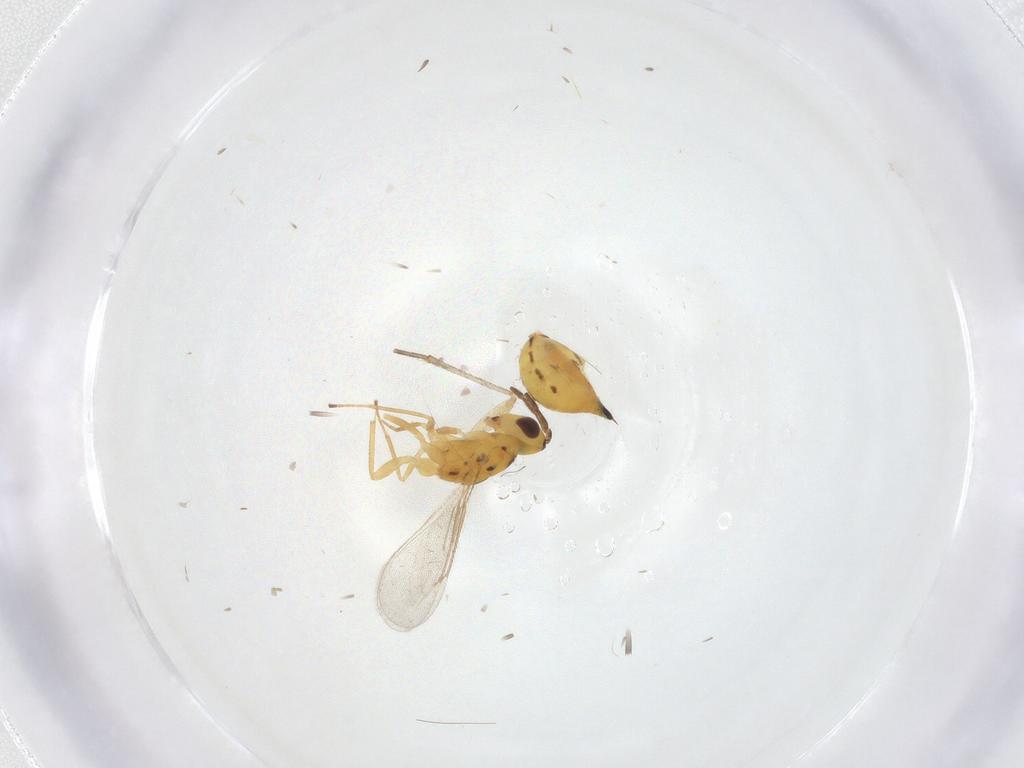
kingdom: Animalia
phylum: Arthropoda
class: Insecta
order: Hymenoptera
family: Eulophidae
